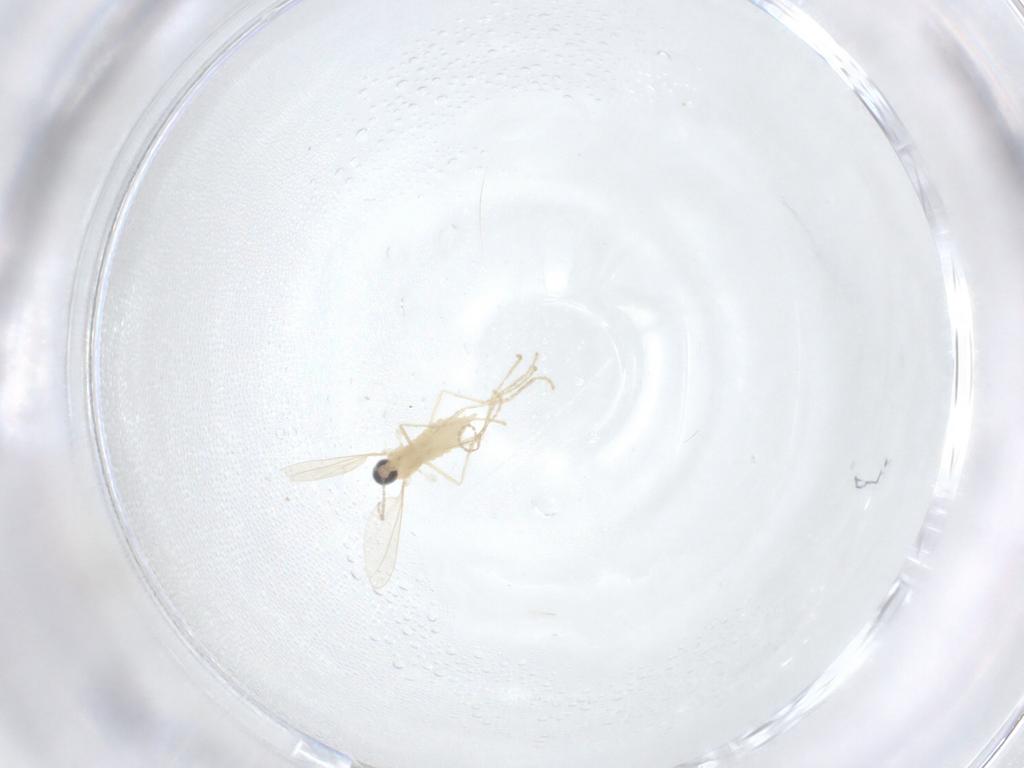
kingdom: Animalia
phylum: Arthropoda
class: Insecta
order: Diptera
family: Cecidomyiidae
